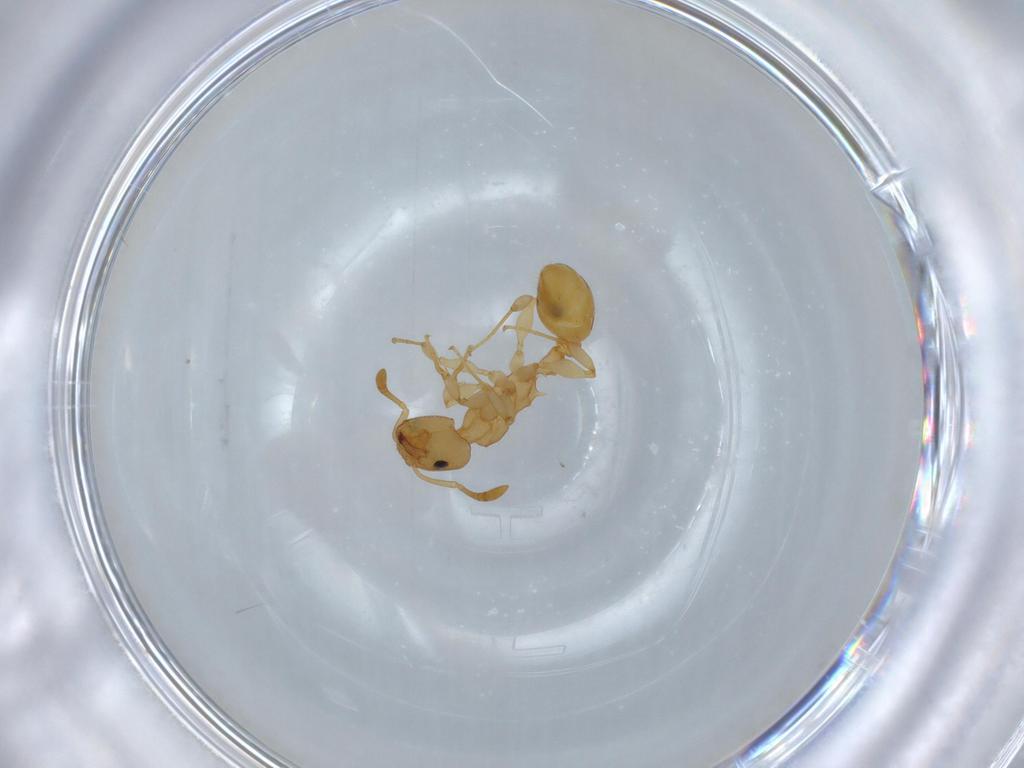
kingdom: Animalia
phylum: Arthropoda
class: Insecta
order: Hymenoptera
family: Formicidae
